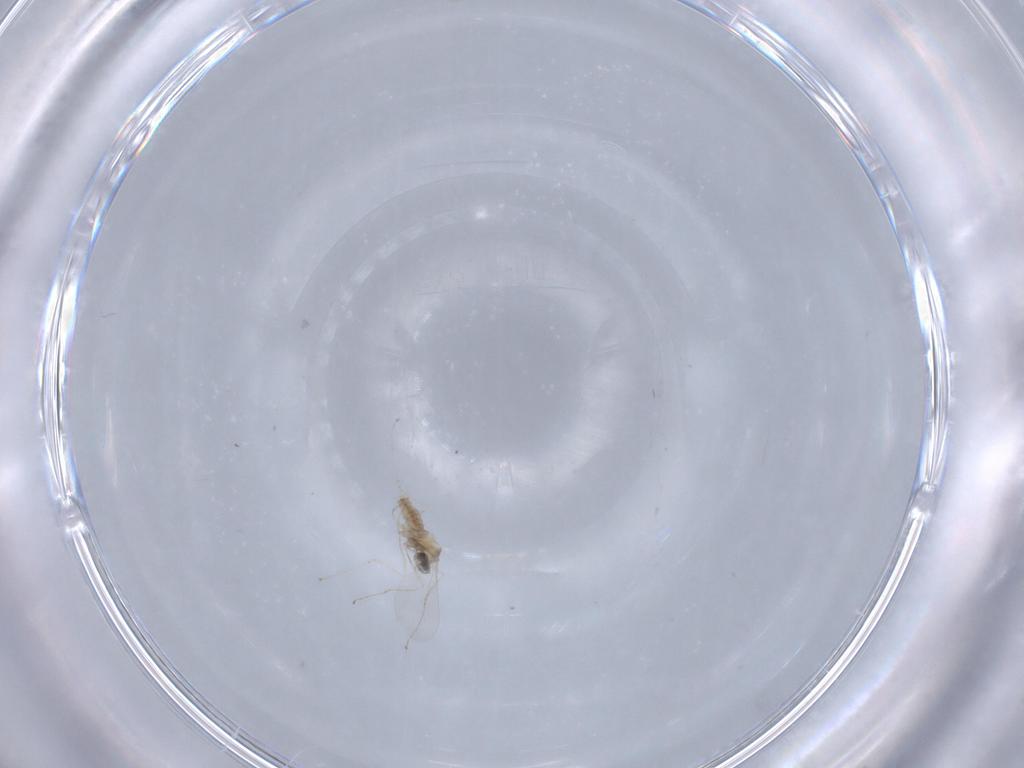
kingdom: Animalia
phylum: Arthropoda
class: Insecta
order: Diptera
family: Cecidomyiidae
